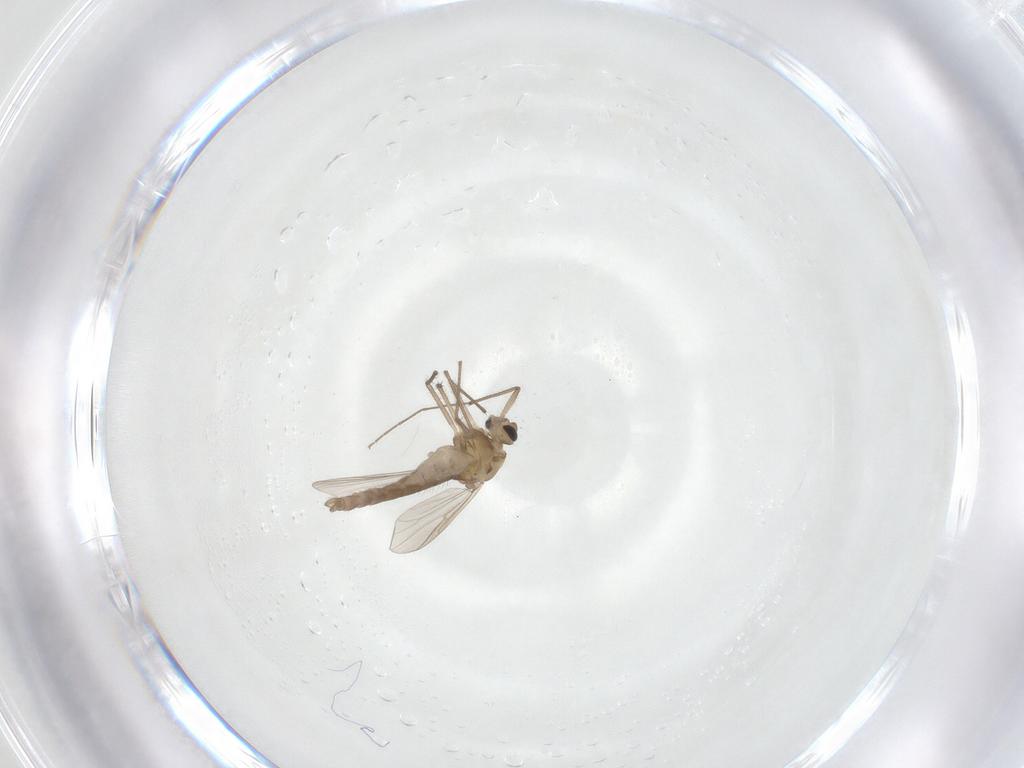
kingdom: Animalia
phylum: Arthropoda
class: Insecta
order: Diptera
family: Chironomidae
